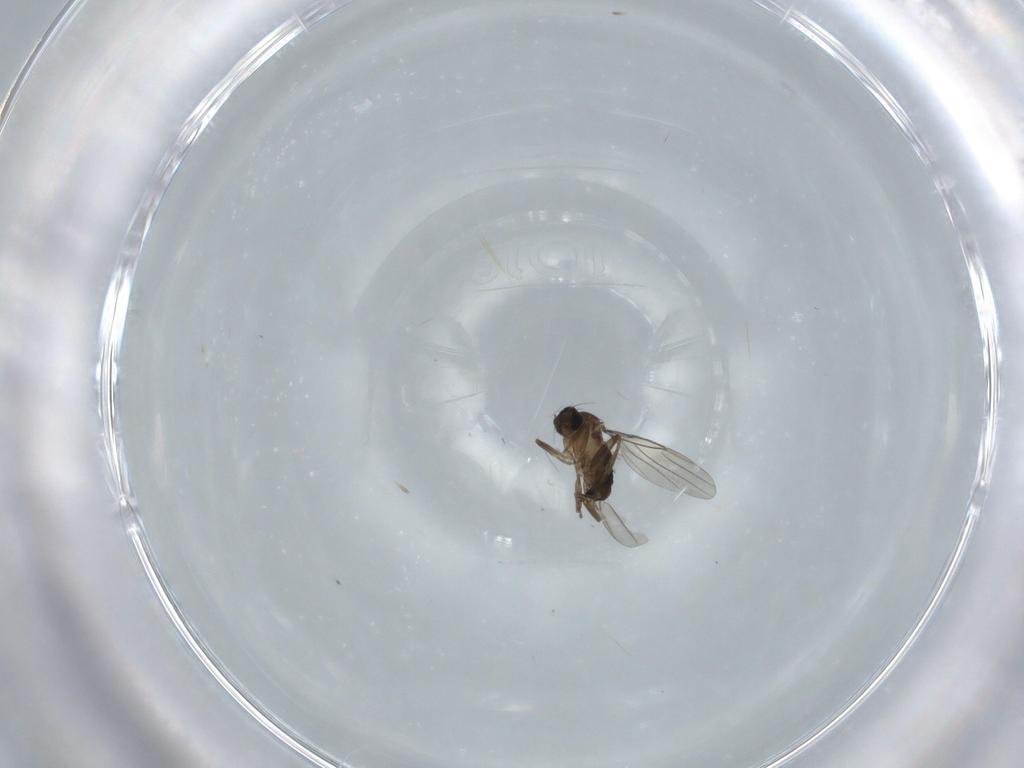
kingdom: Animalia
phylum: Arthropoda
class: Insecta
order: Diptera
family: Phoridae
